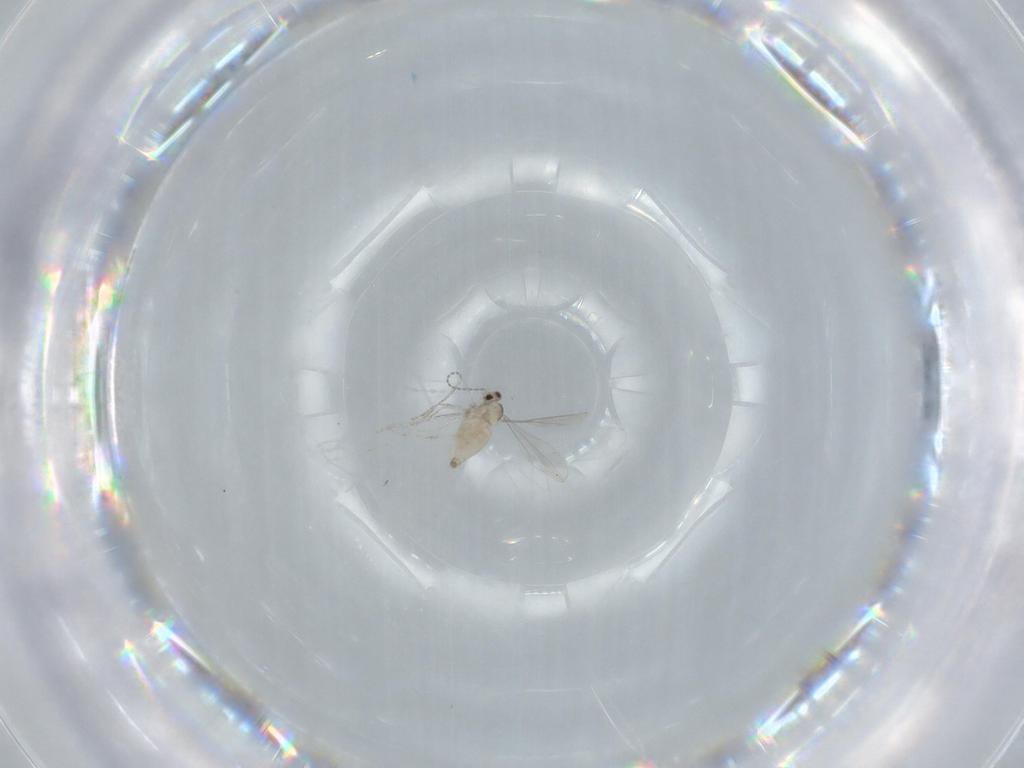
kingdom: Animalia
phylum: Arthropoda
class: Insecta
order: Diptera
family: Cecidomyiidae
